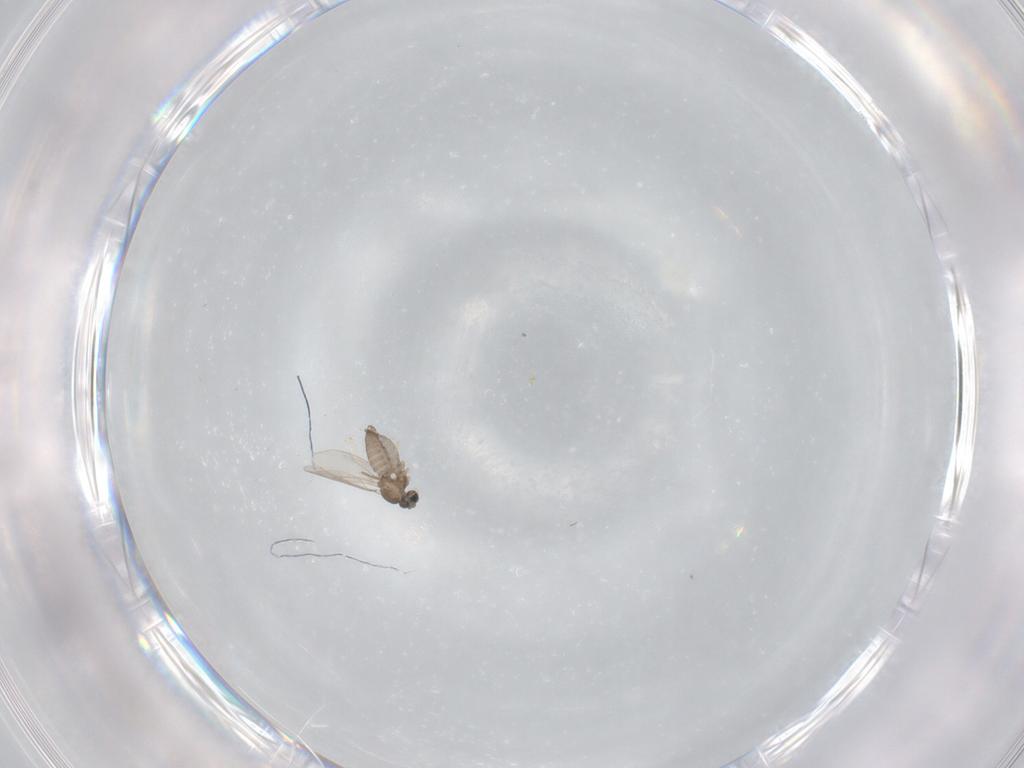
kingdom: Animalia
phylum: Arthropoda
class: Insecta
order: Diptera
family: Cecidomyiidae
